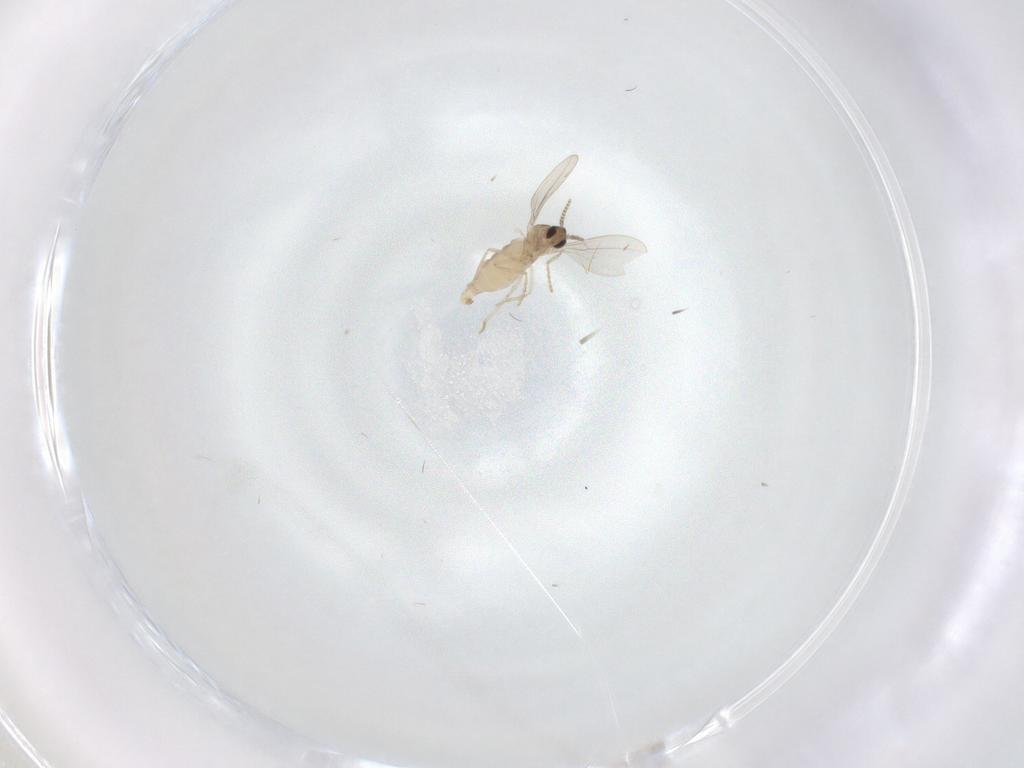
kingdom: Animalia
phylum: Arthropoda
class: Insecta
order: Diptera
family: Cecidomyiidae
